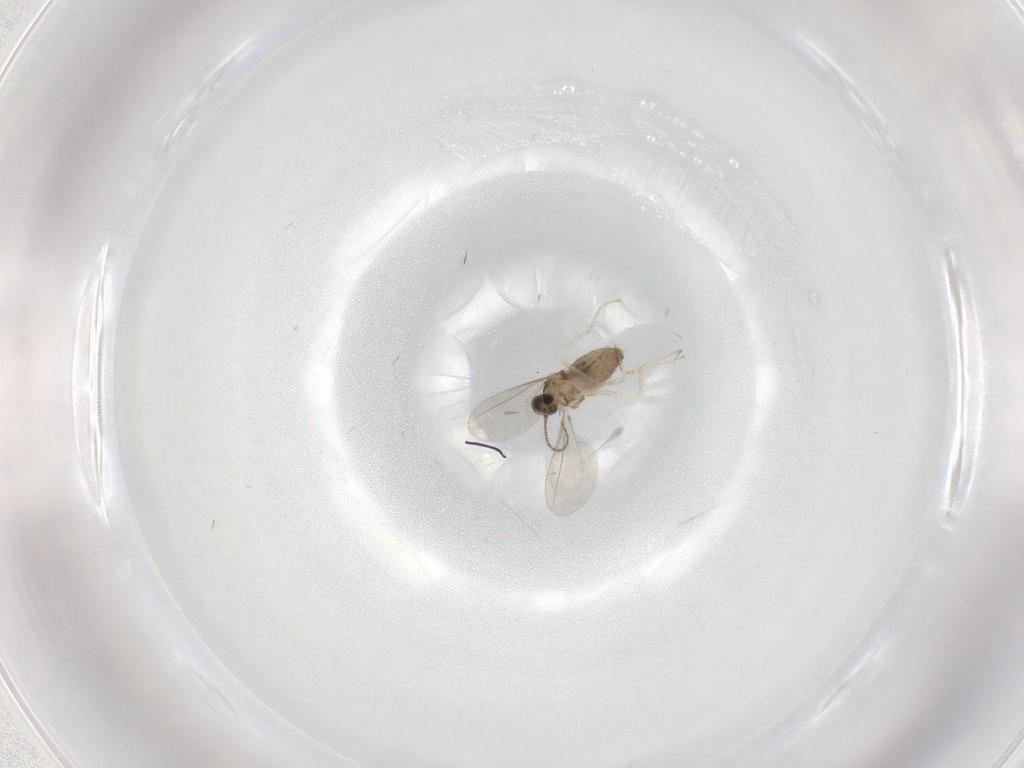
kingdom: Animalia
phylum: Arthropoda
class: Insecta
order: Diptera
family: Cecidomyiidae
